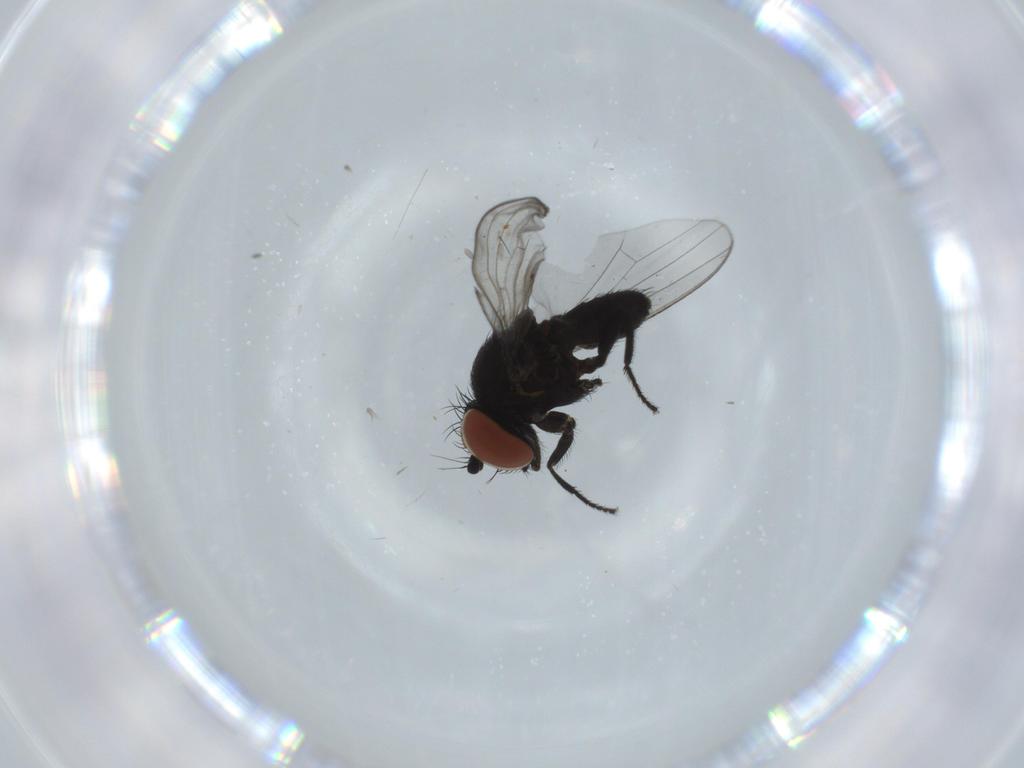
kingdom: Animalia
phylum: Arthropoda
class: Insecta
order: Diptera
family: Milichiidae
